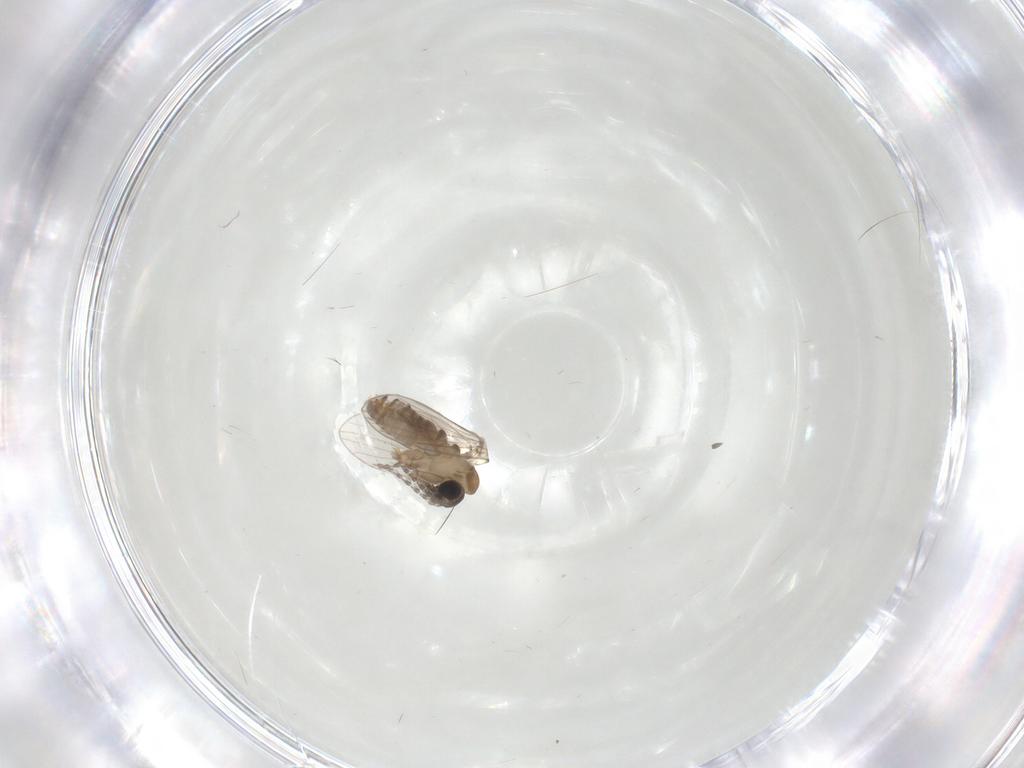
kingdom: Animalia
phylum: Arthropoda
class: Insecta
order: Diptera
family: Psychodidae
